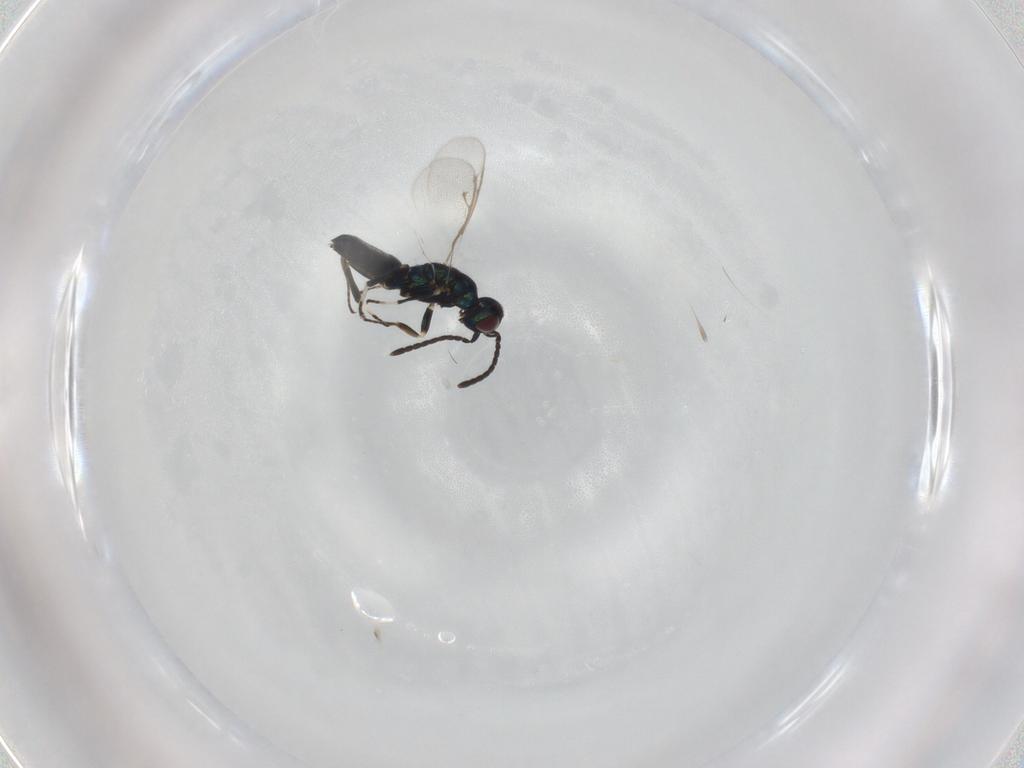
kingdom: Animalia
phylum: Arthropoda
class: Insecta
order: Hymenoptera
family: Eupelmidae
